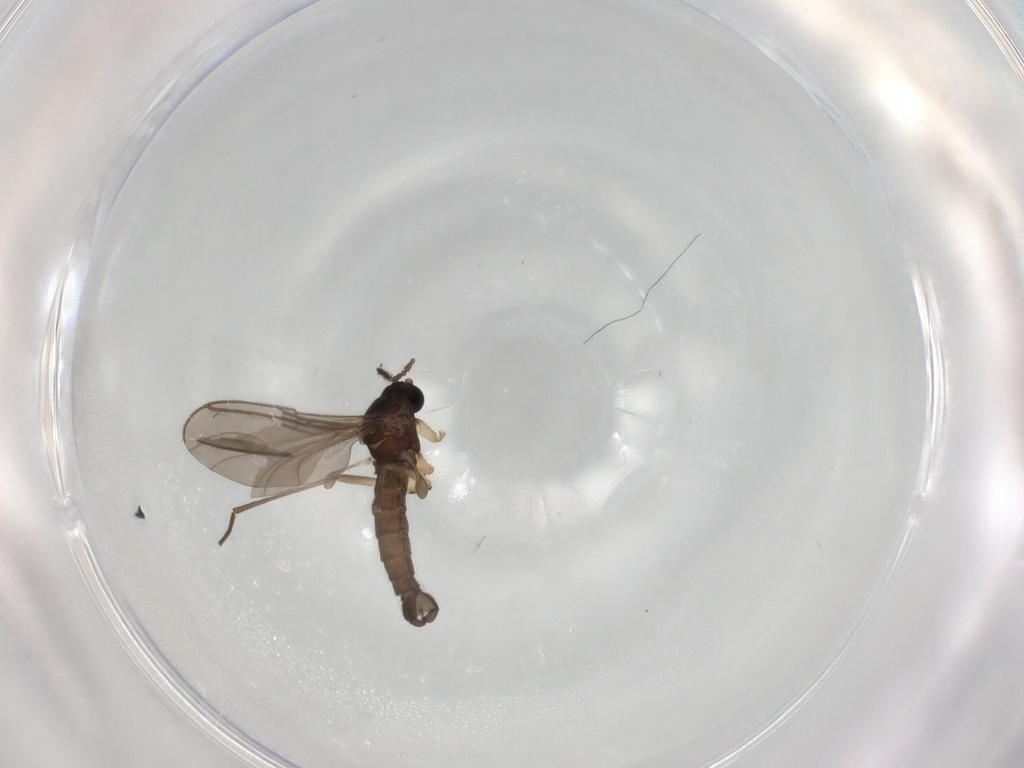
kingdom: Animalia
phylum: Arthropoda
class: Insecta
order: Diptera
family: Sciaridae
